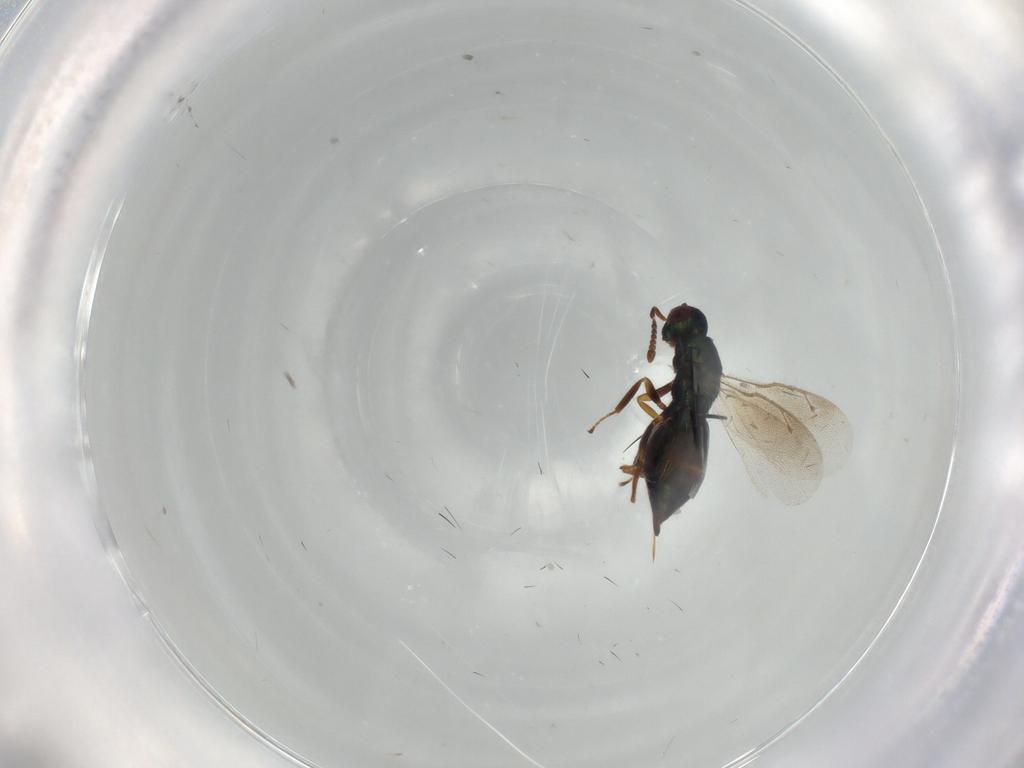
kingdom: Animalia
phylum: Arthropoda
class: Insecta
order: Hymenoptera
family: Pteromalidae
